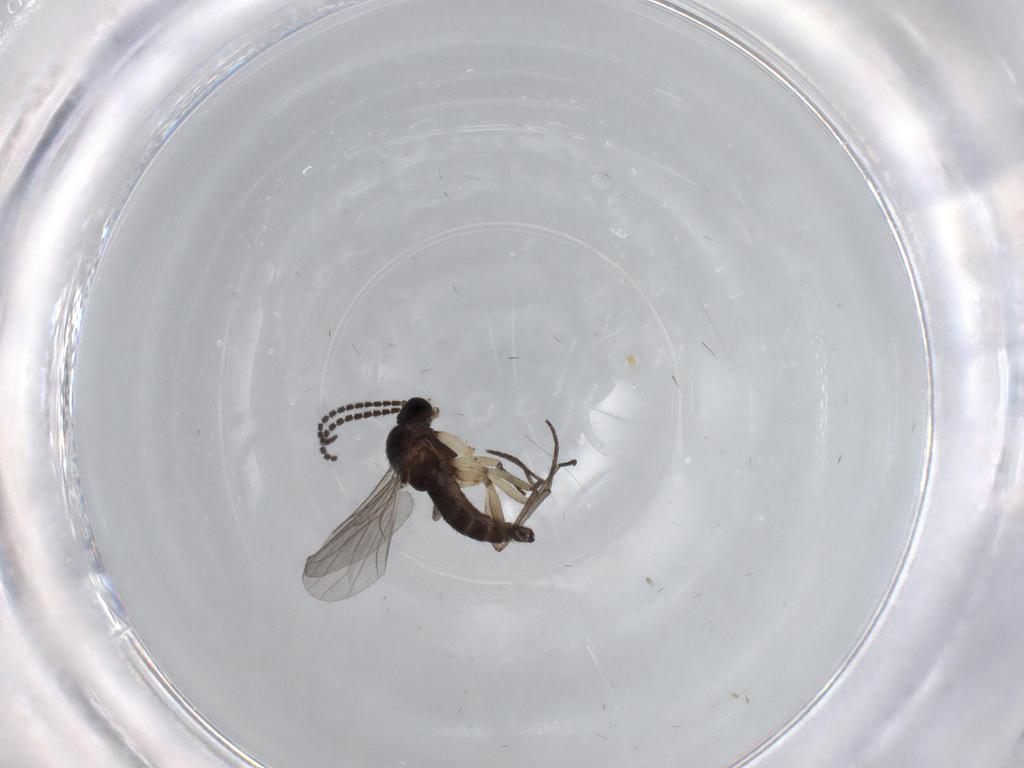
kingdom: Animalia
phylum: Arthropoda
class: Insecta
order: Diptera
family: Sciaridae
